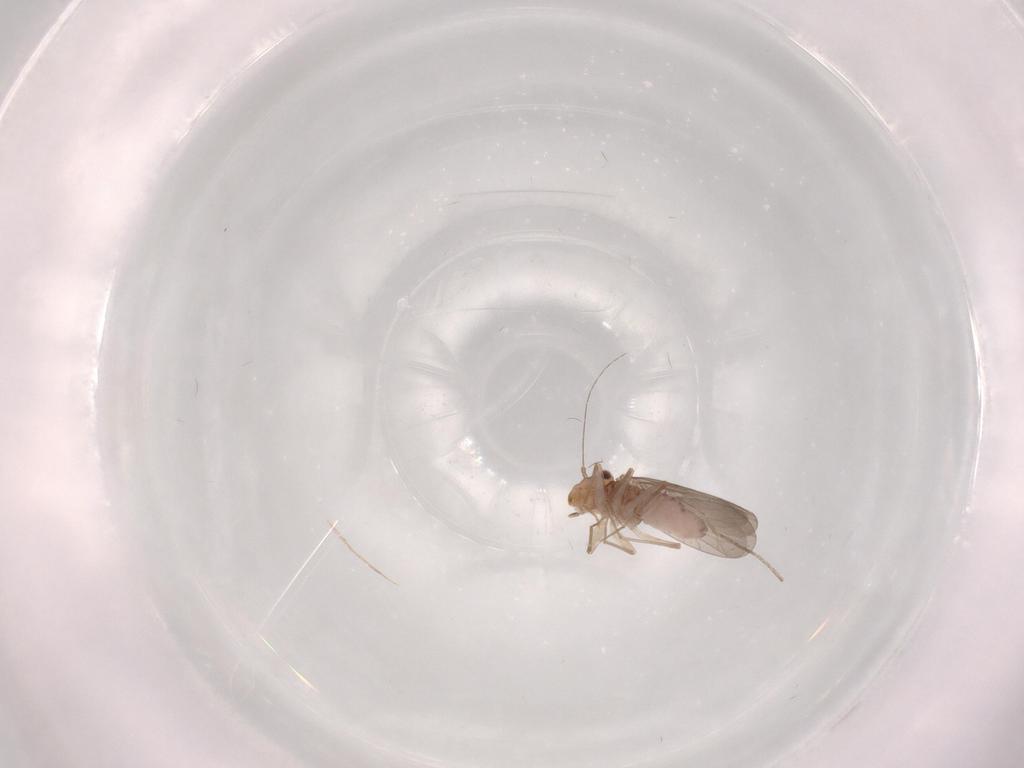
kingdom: Animalia
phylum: Arthropoda
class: Insecta
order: Psocodea
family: Lepidopsocidae
